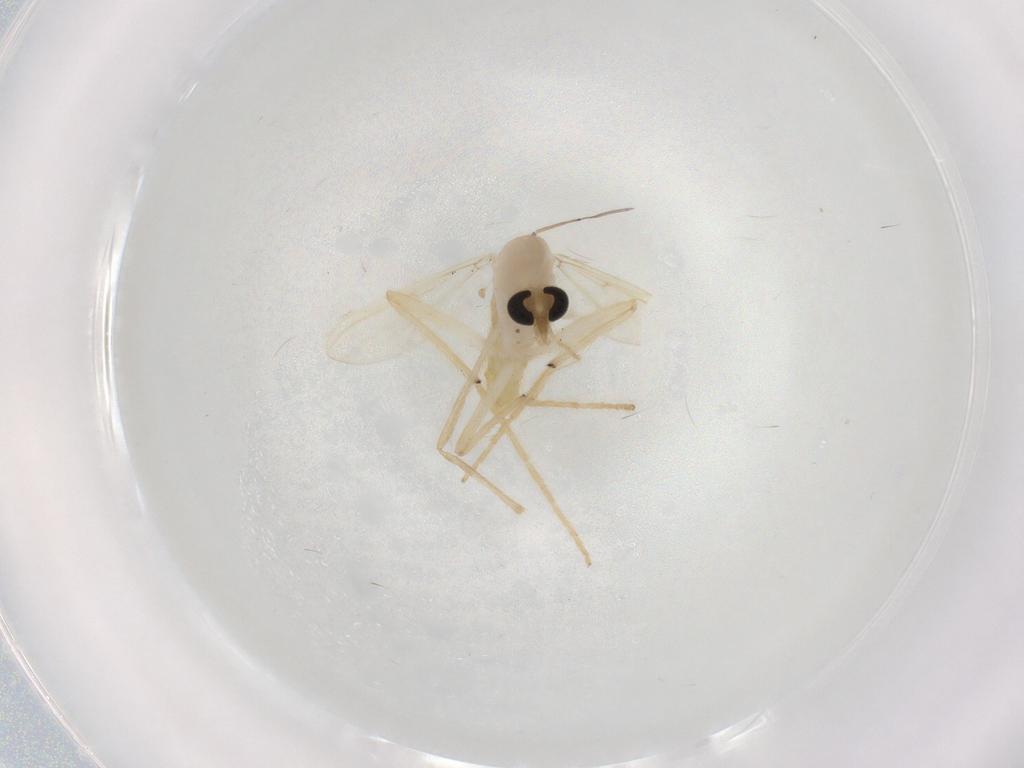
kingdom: Animalia
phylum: Arthropoda
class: Insecta
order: Diptera
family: Chironomidae
